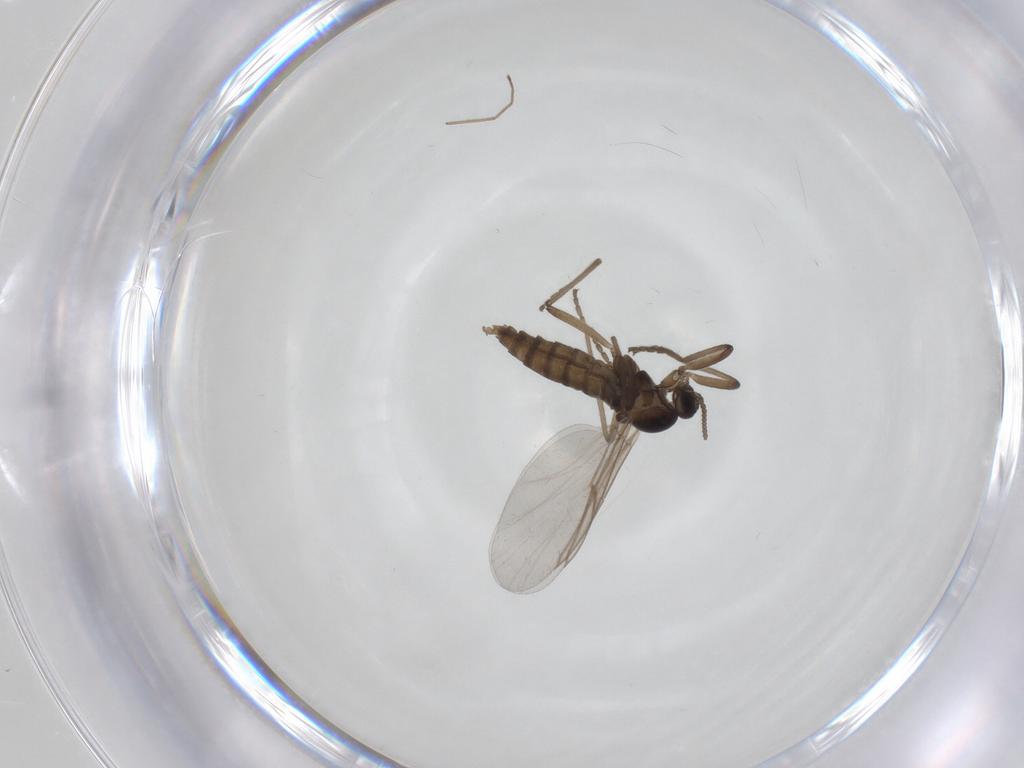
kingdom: Animalia
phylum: Arthropoda
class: Insecta
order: Diptera
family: Cecidomyiidae
